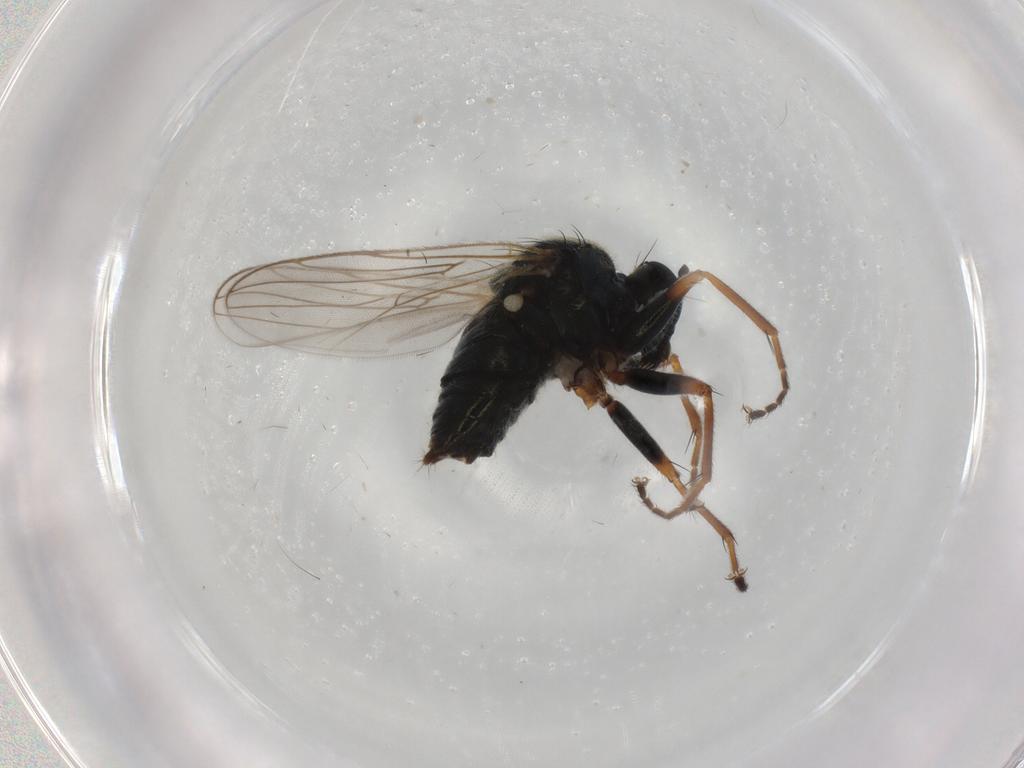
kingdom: Animalia
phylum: Arthropoda
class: Insecta
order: Diptera
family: Hybotidae
